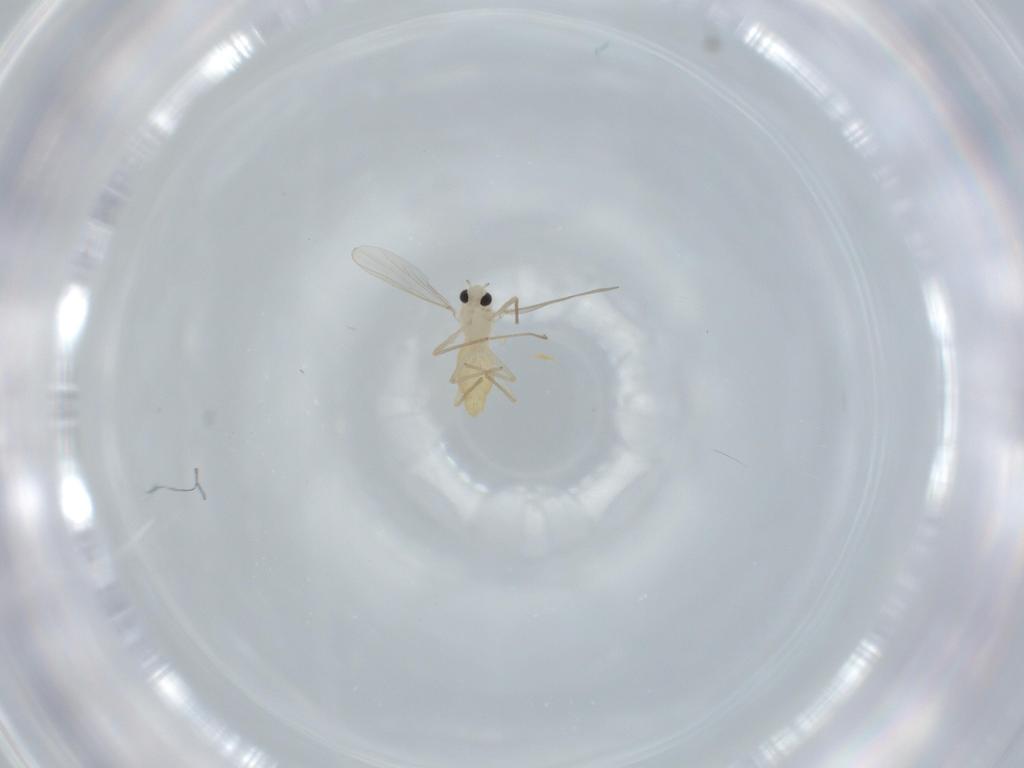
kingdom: Animalia
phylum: Arthropoda
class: Insecta
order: Diptera
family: Chironomidae
